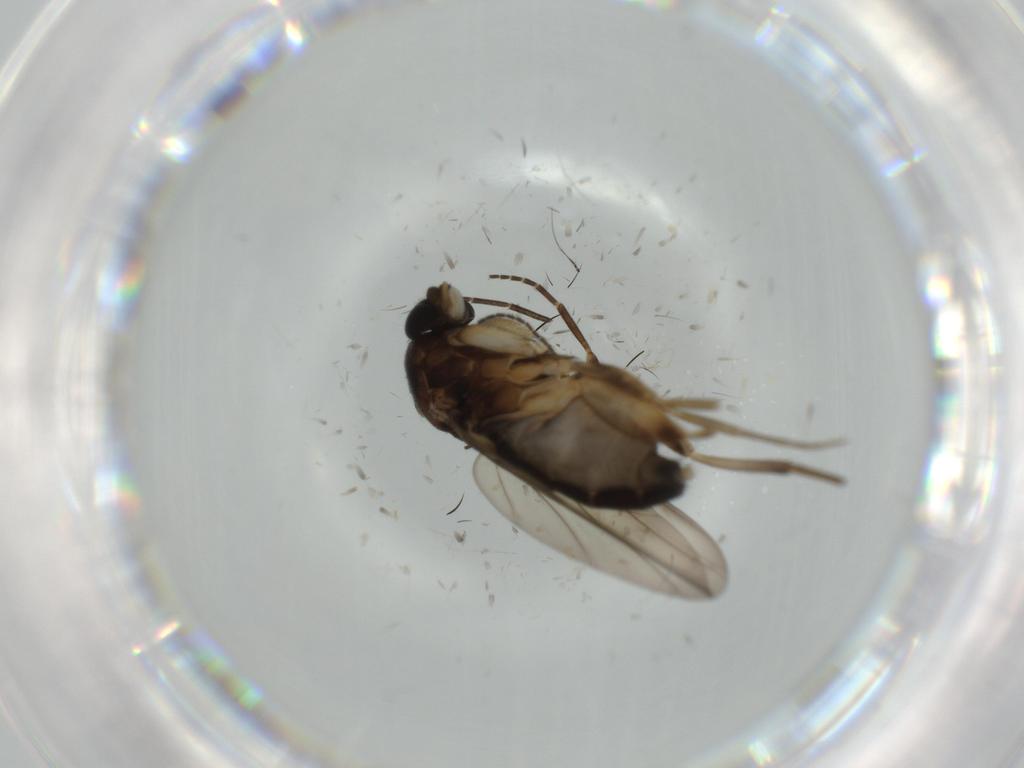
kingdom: Animalia
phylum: Arthropoda
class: Insecta
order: Diptera
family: Phoridae
